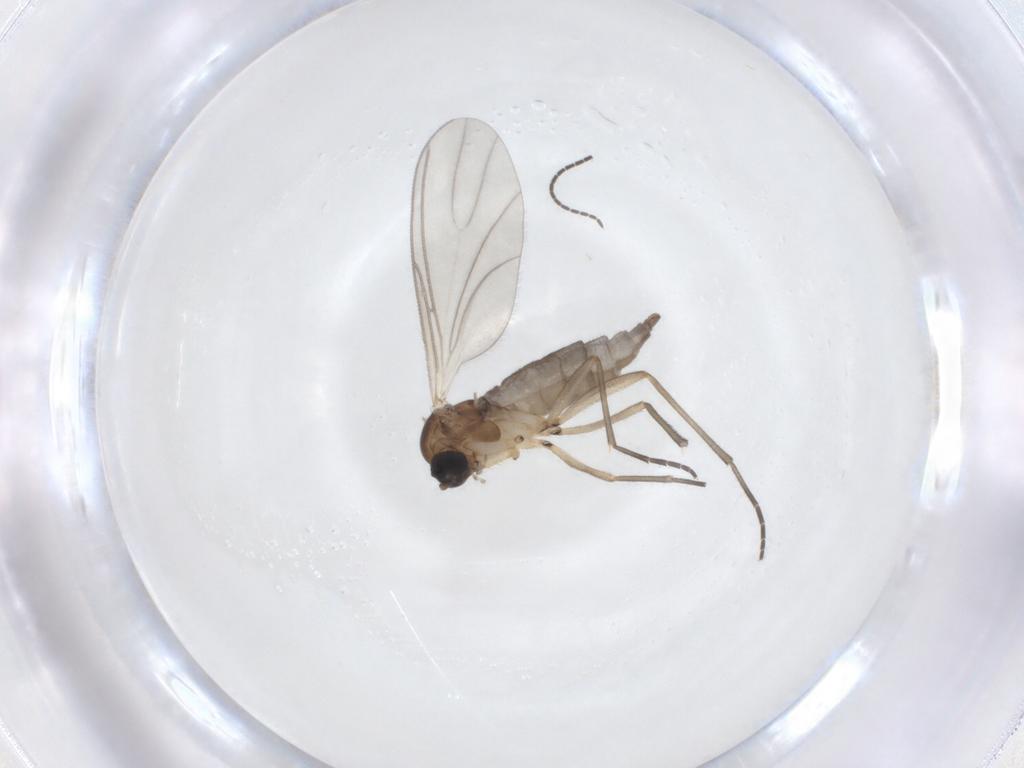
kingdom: Animalia
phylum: Arthropoda
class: Insecta
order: Diptera
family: Sciaridae
